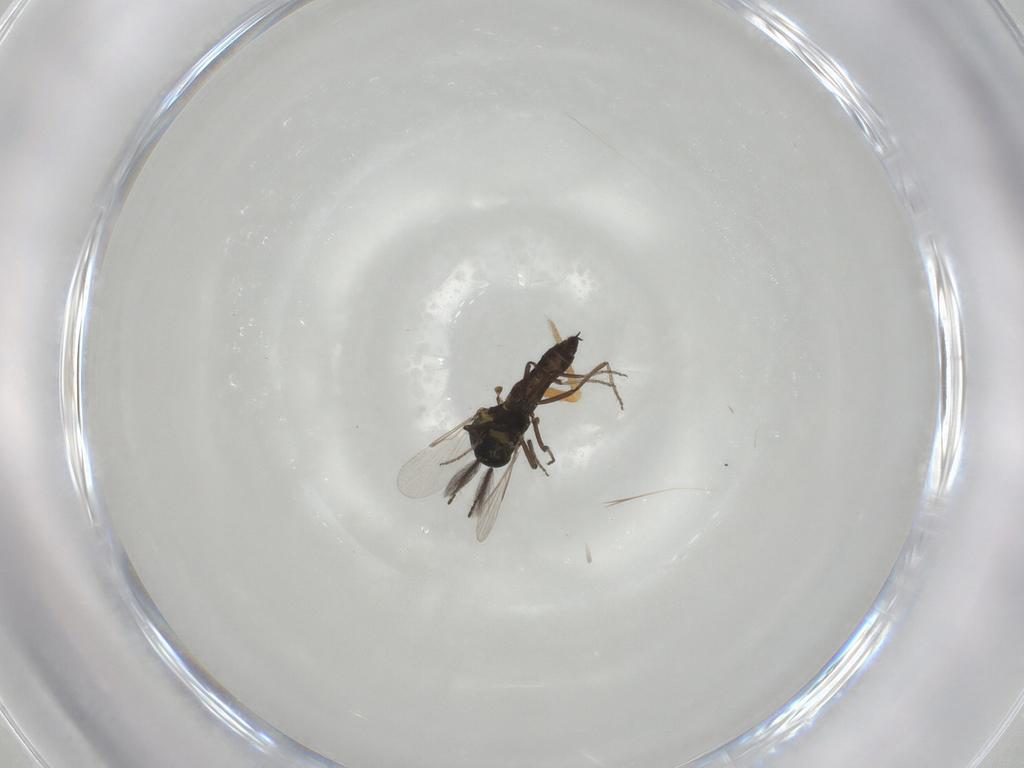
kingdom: Animalia
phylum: Arthropoda
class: Insecta
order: Diptera
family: Ceratopogonidae
